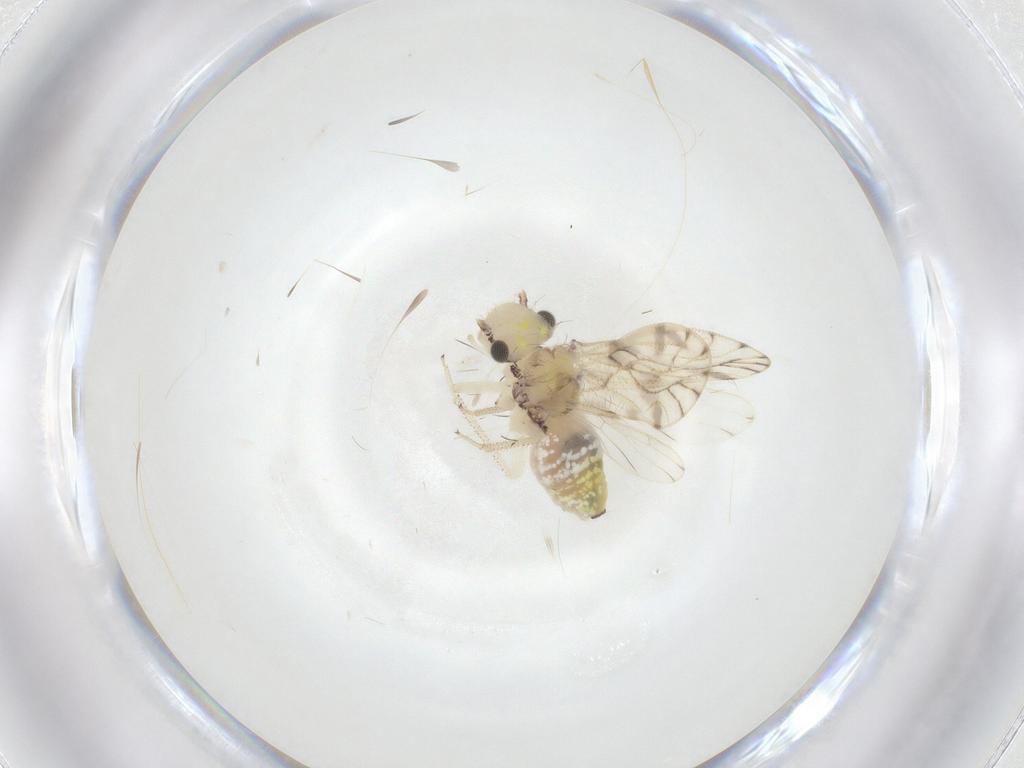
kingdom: Animalia
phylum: Arthropoda
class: Insecta
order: Psocodea
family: Pseudocaeciliidae
